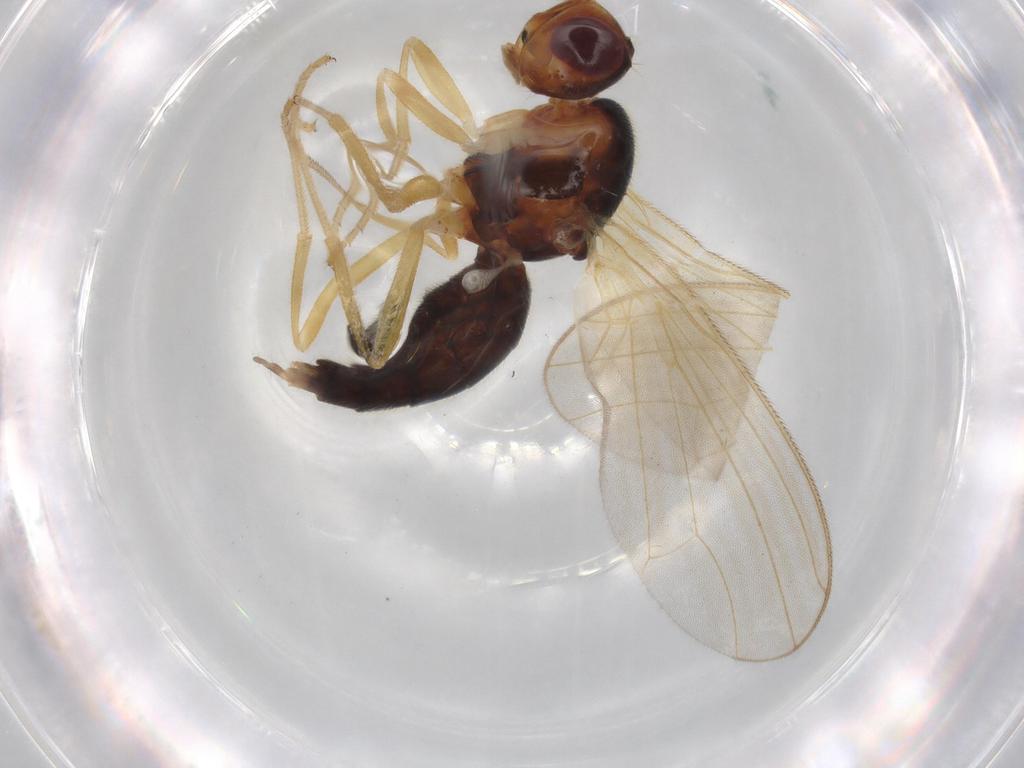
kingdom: Animalia
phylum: Arthropoda
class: Insecta
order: Diptera
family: Psilidae
